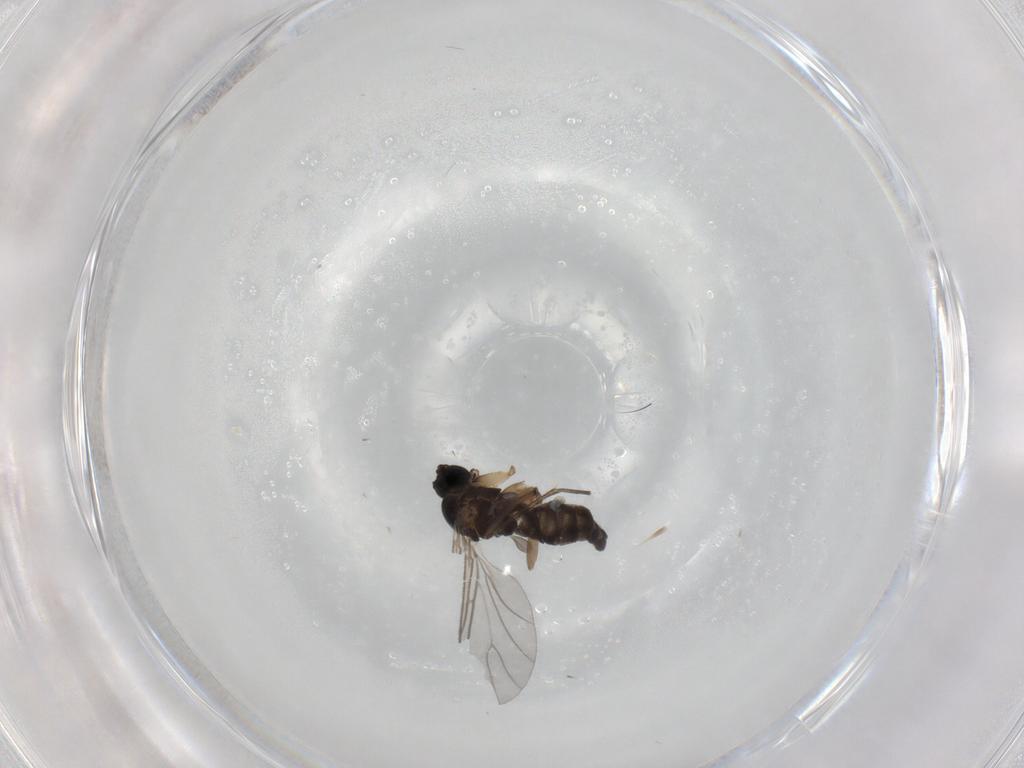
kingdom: Animalia
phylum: Arthropoda
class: Insecta
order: Diptera
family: Sciaridae
